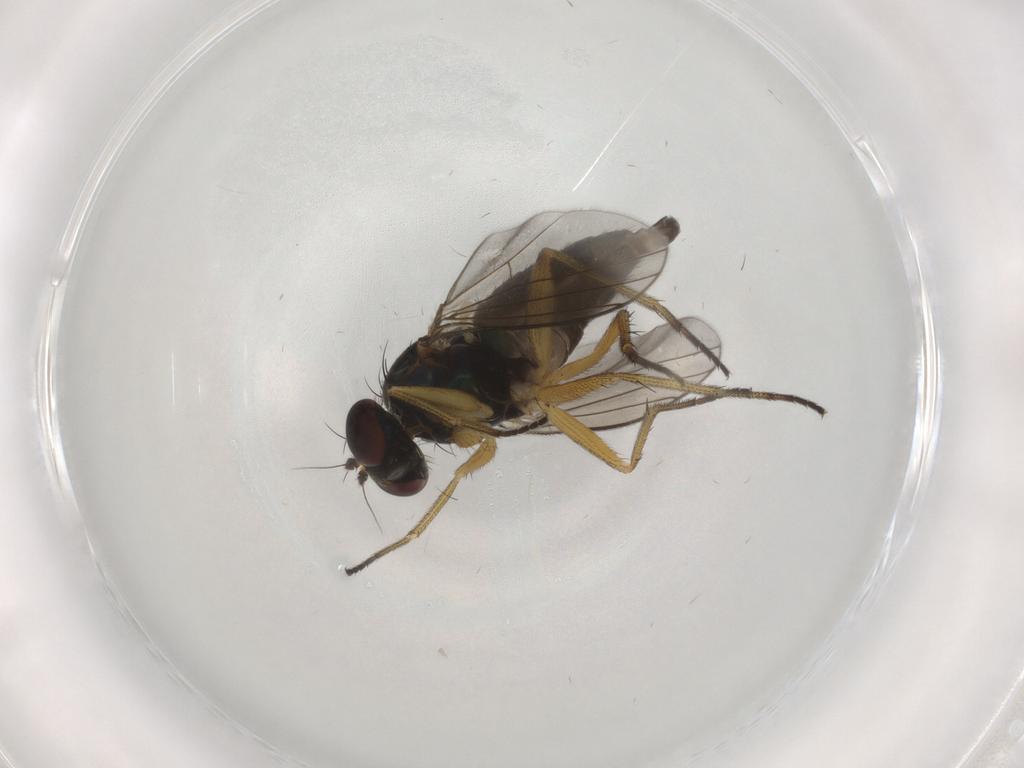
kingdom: Animalia
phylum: Arthropoda
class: Insecta
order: Diptera
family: Dolichopodidae
